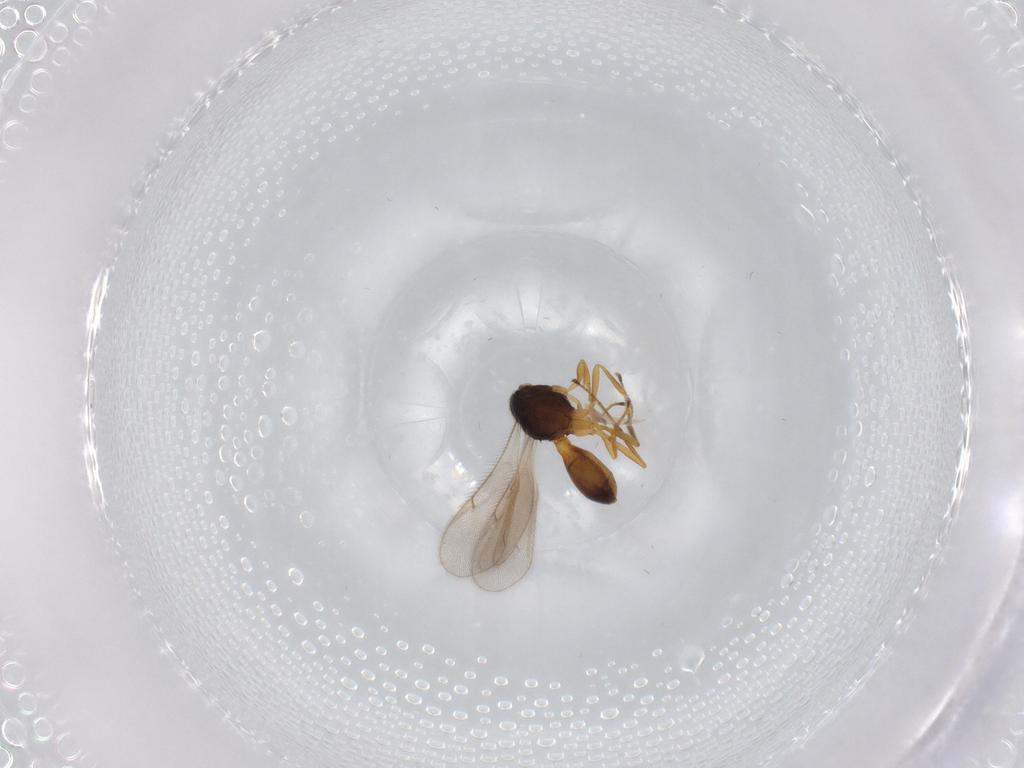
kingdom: Animalia
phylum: Arthropoda
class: Insecta
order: Hymenoptera
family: Scelionidae
